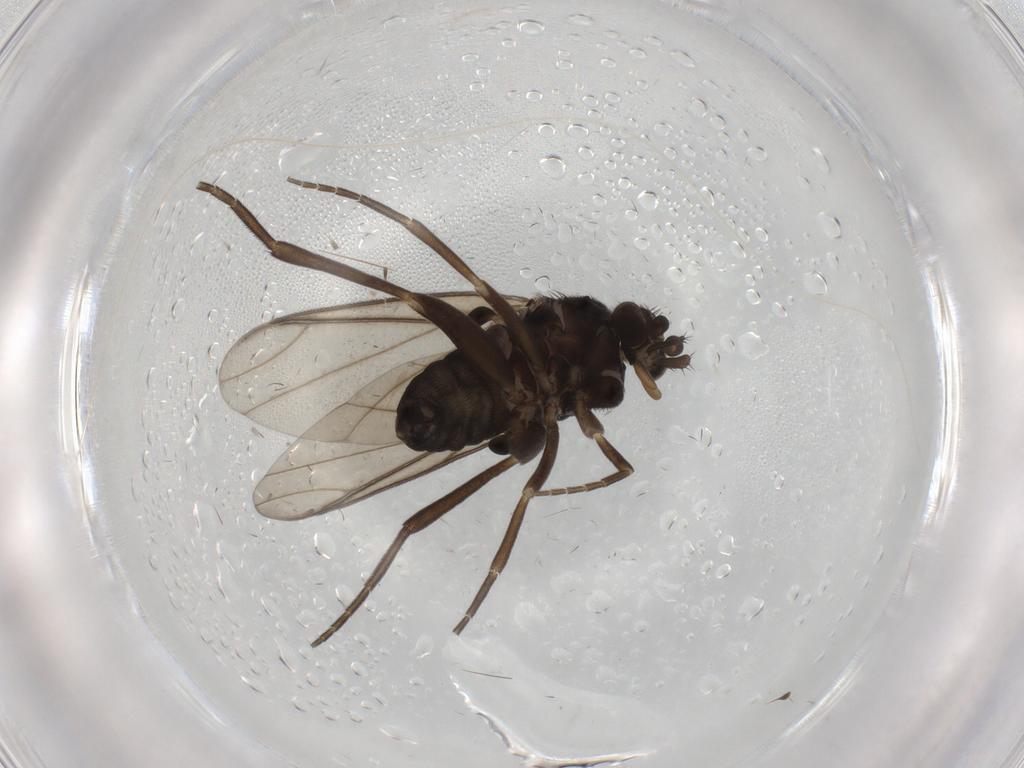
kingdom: Animalia
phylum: Arthropoda
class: Insecta
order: Diptera
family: Phoridae
